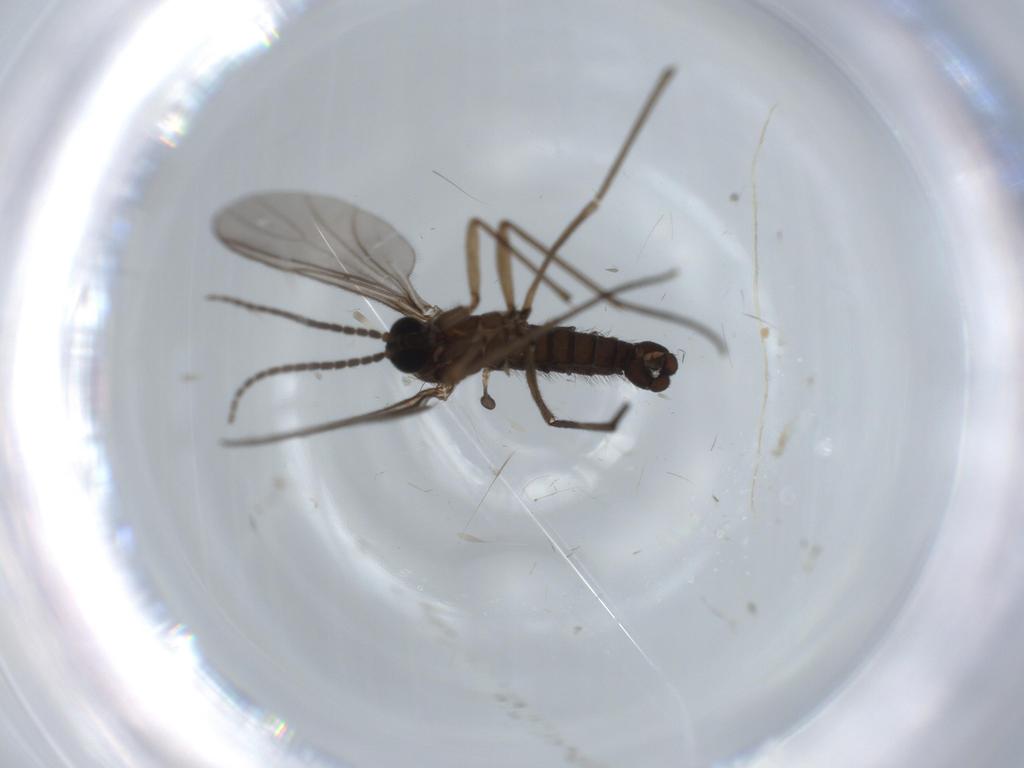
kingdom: Animalia
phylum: Arthropoda
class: Insecta
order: Diptera
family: Sciaridae
